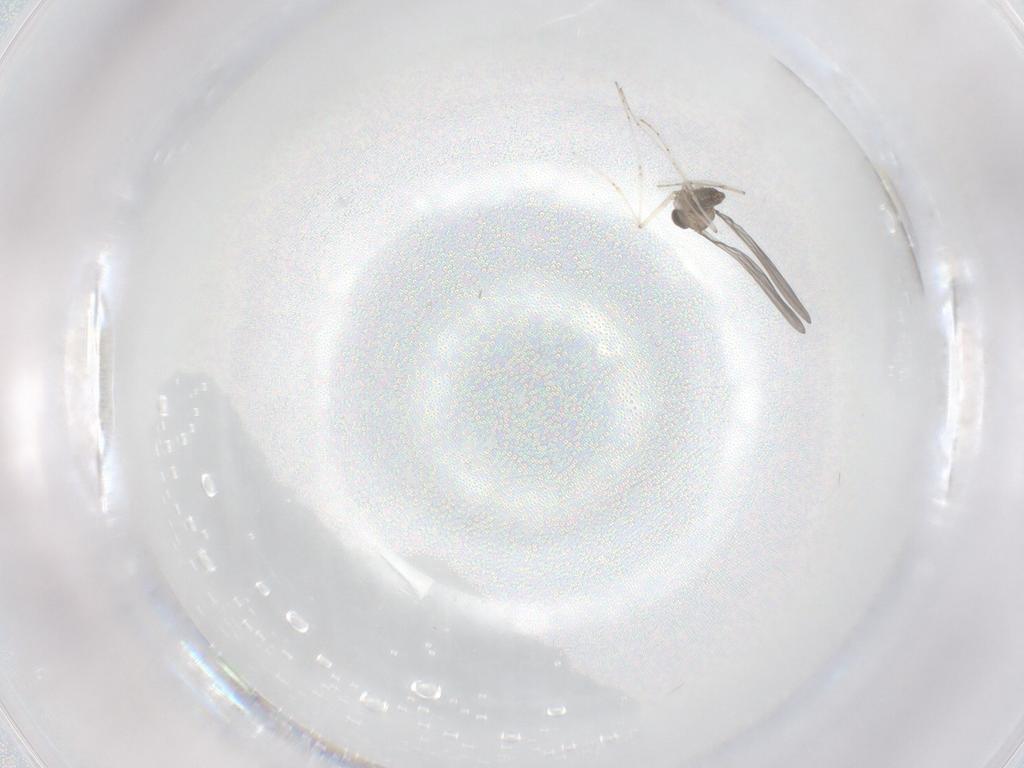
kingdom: Animalia
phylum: Arthropoda
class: Insecta
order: Diptera
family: Cecidomyiidae
